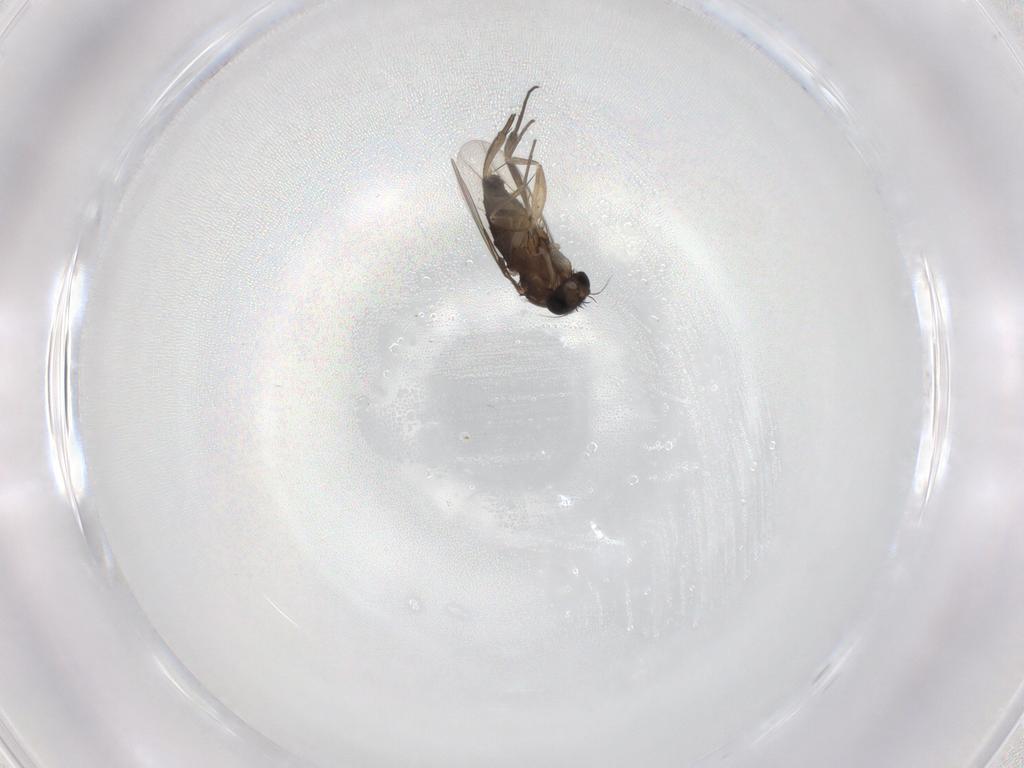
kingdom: Animalia
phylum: Arthropoda
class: Insecta
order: Diptera
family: Phoridae
